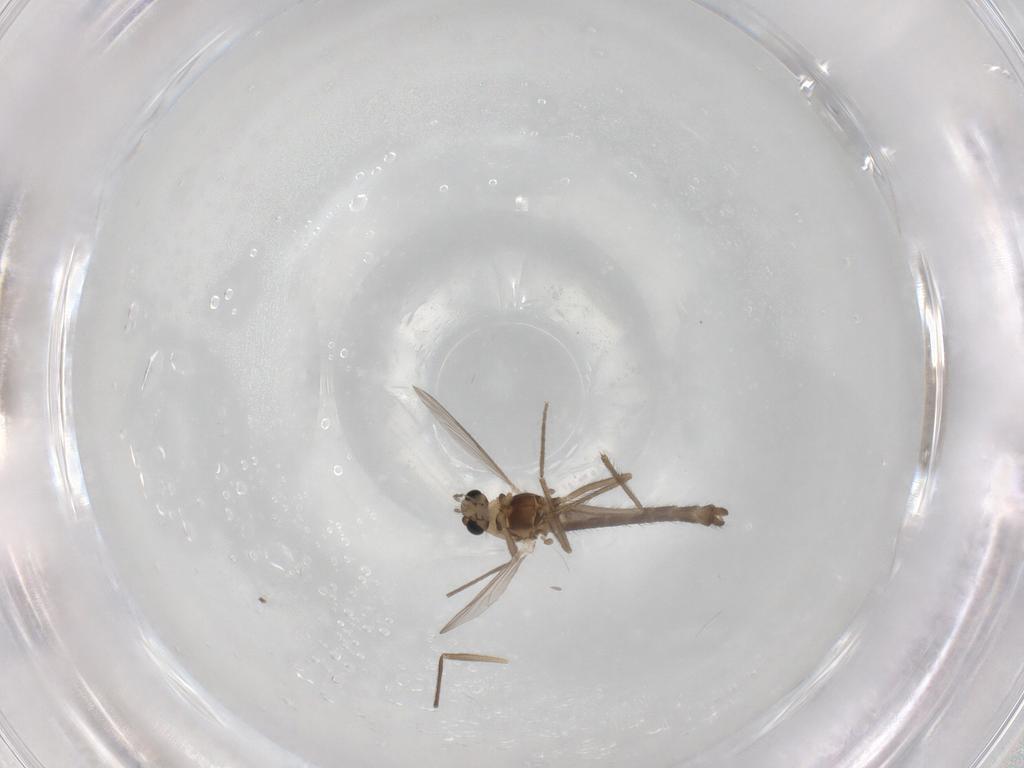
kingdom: Animalia
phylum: Arthropoda
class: Insecta
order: Diptera
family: Chironomidae
